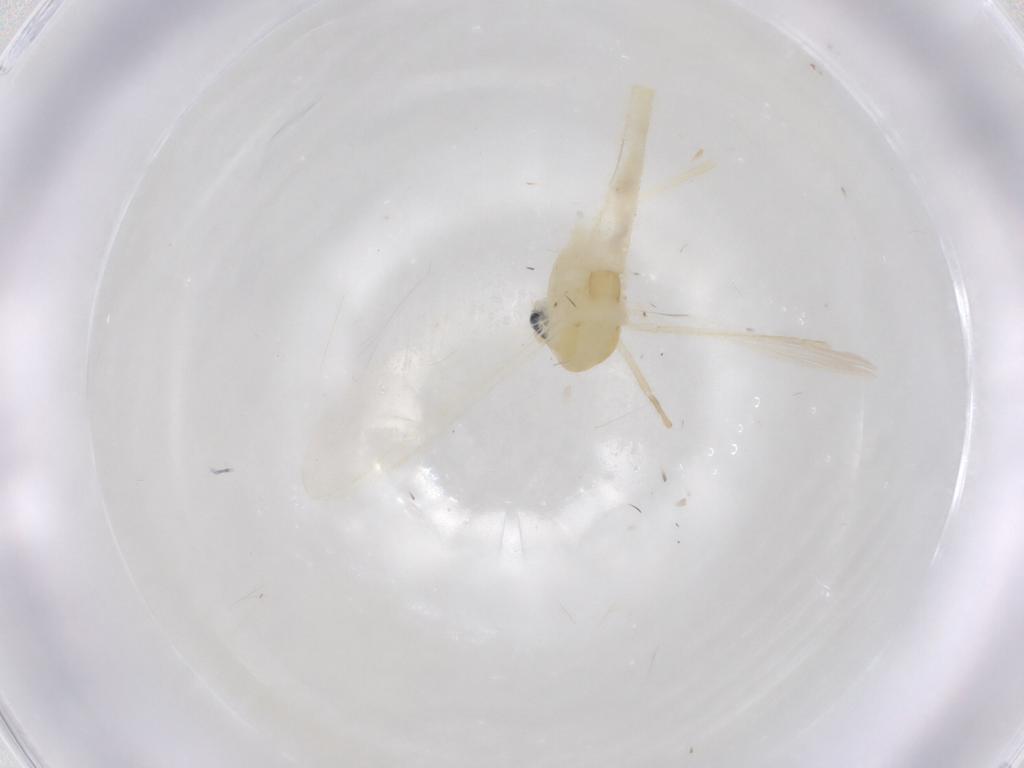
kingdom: Animalia
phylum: Arthropoda
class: Insecta
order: Diptera
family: Chironomidae
